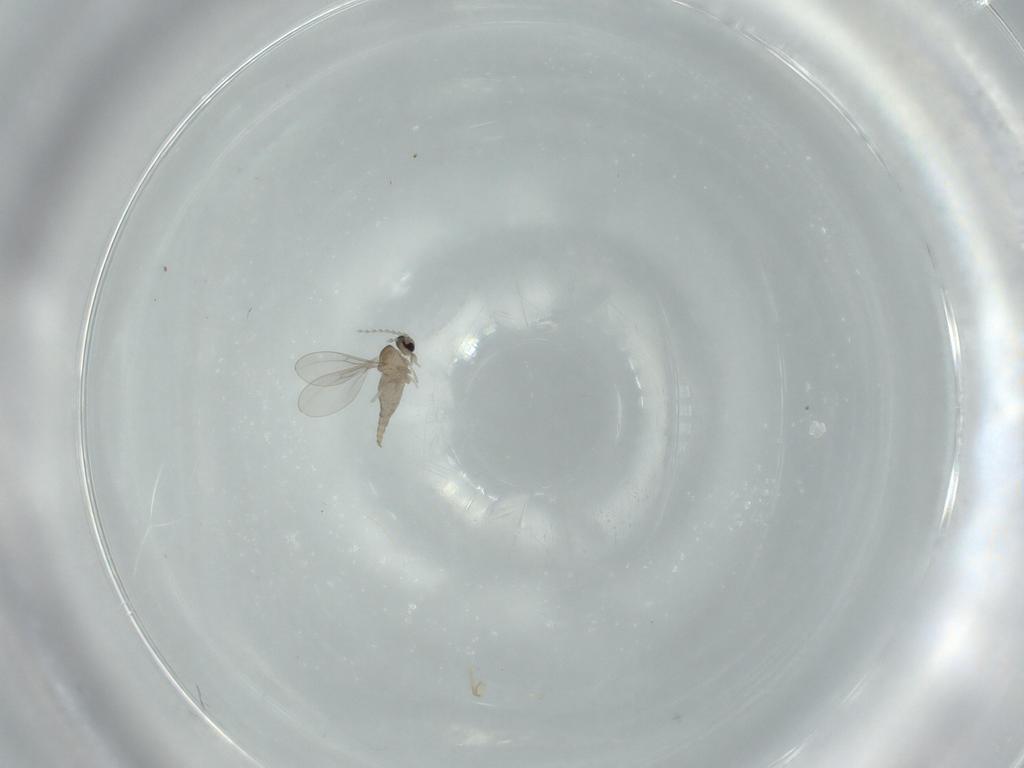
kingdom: Animalia
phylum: Arthropoda
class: Insecta
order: Diptera
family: Cecidomyiidae
